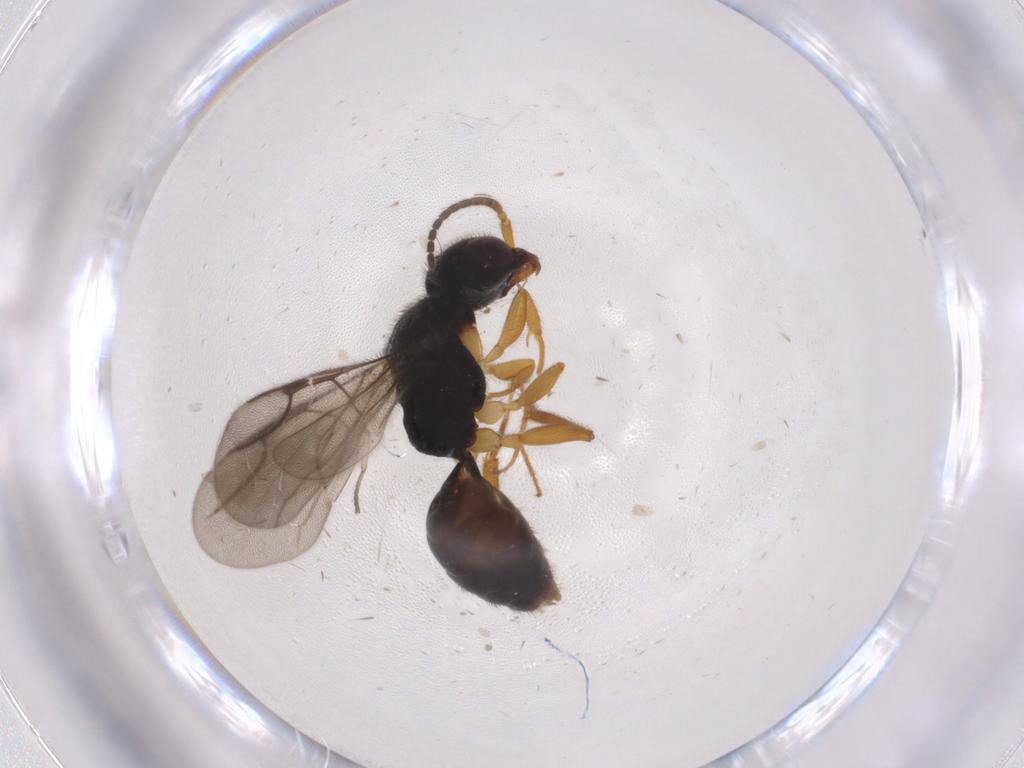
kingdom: Animalia
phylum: Arthropoda
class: Insecta
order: Hymenoptera
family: Bethylidae
